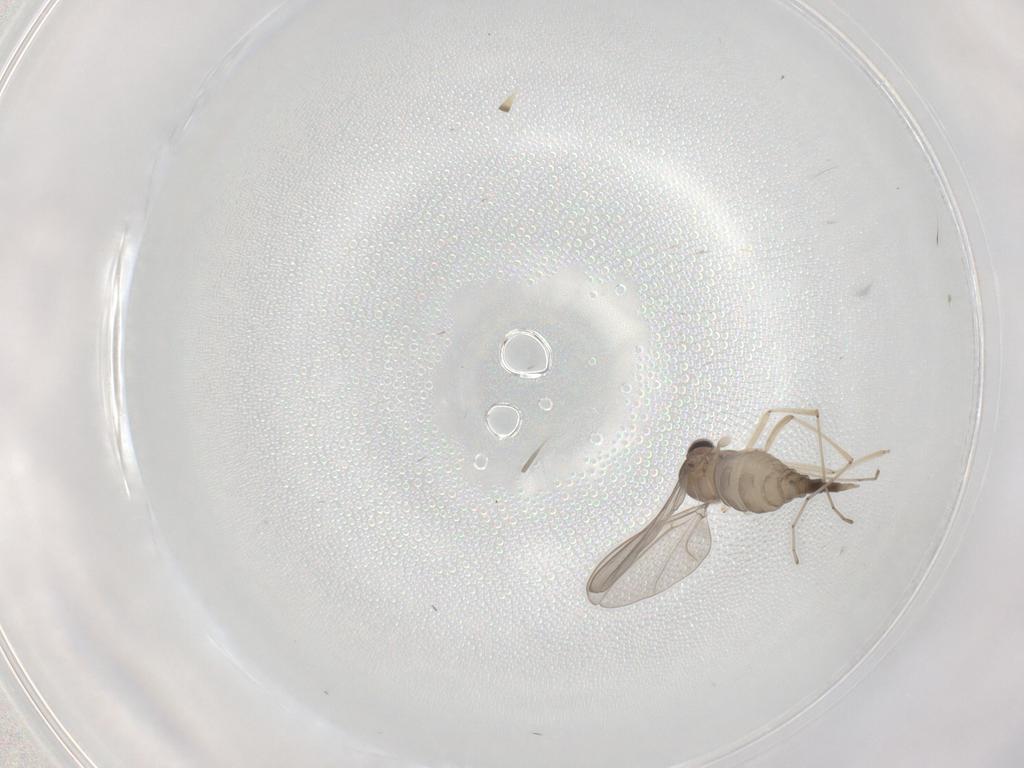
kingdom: Animalia
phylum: Arthropoda
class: Insecta
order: Diptera
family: Cecidomyiidae
